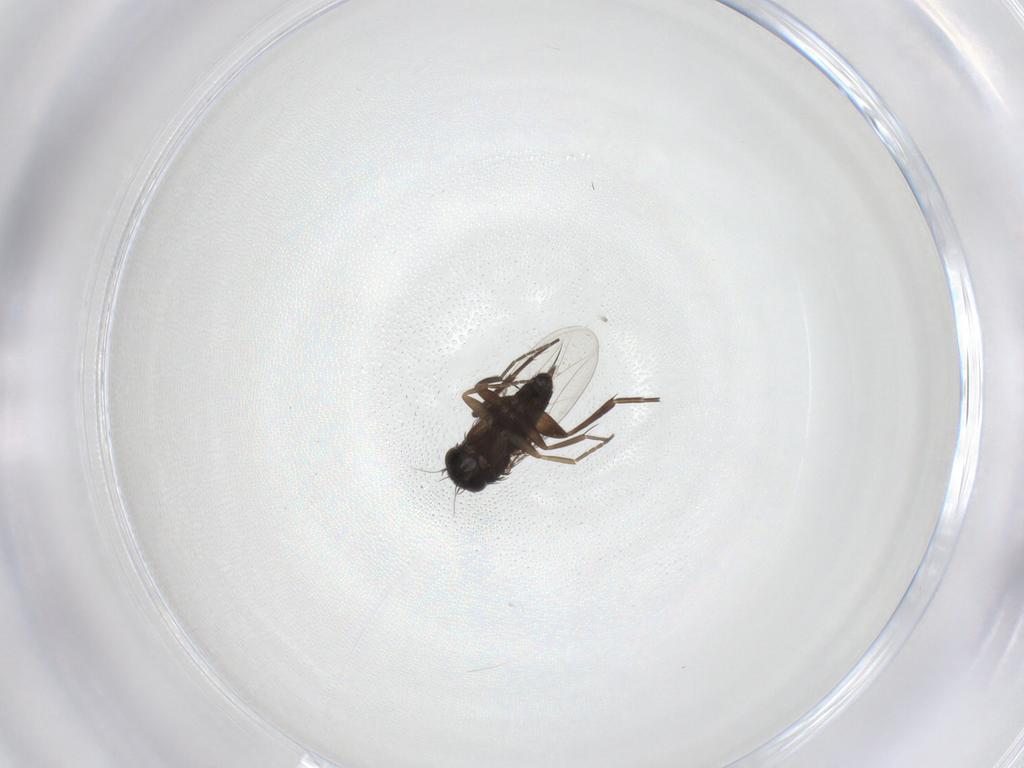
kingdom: Animalia
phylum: Arthropoda
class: Insecta
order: Diptera
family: Phoridae
